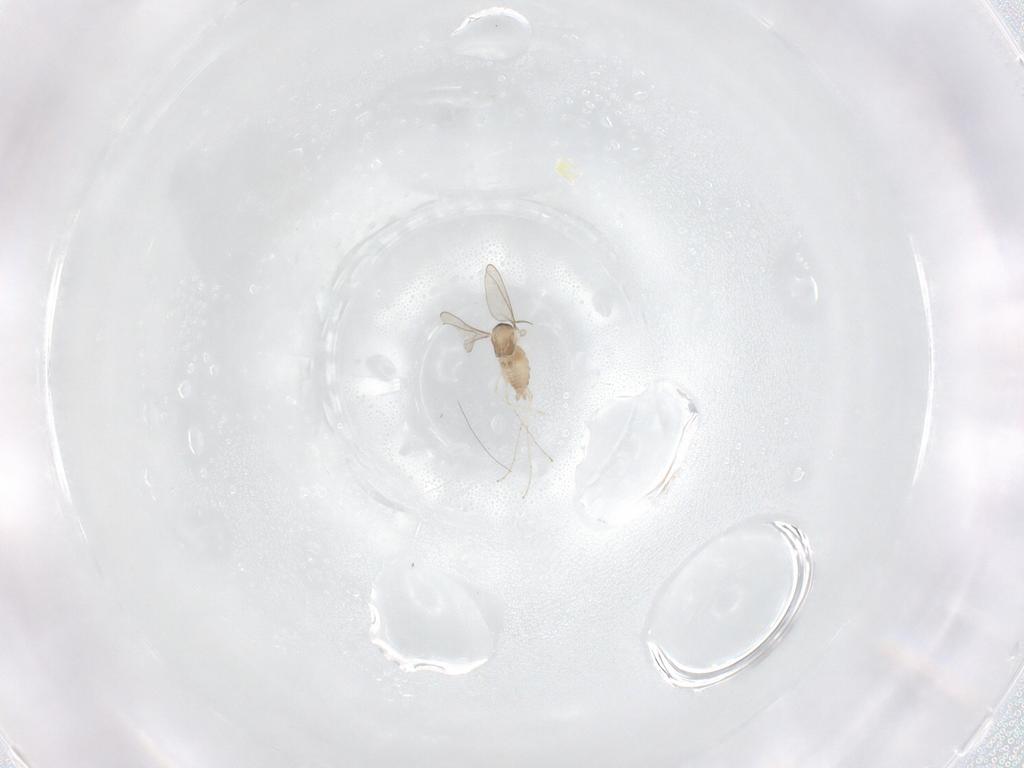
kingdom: Animalia
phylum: Arthropoda
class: Insecta
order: Diptera
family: Cecidomyiidae
